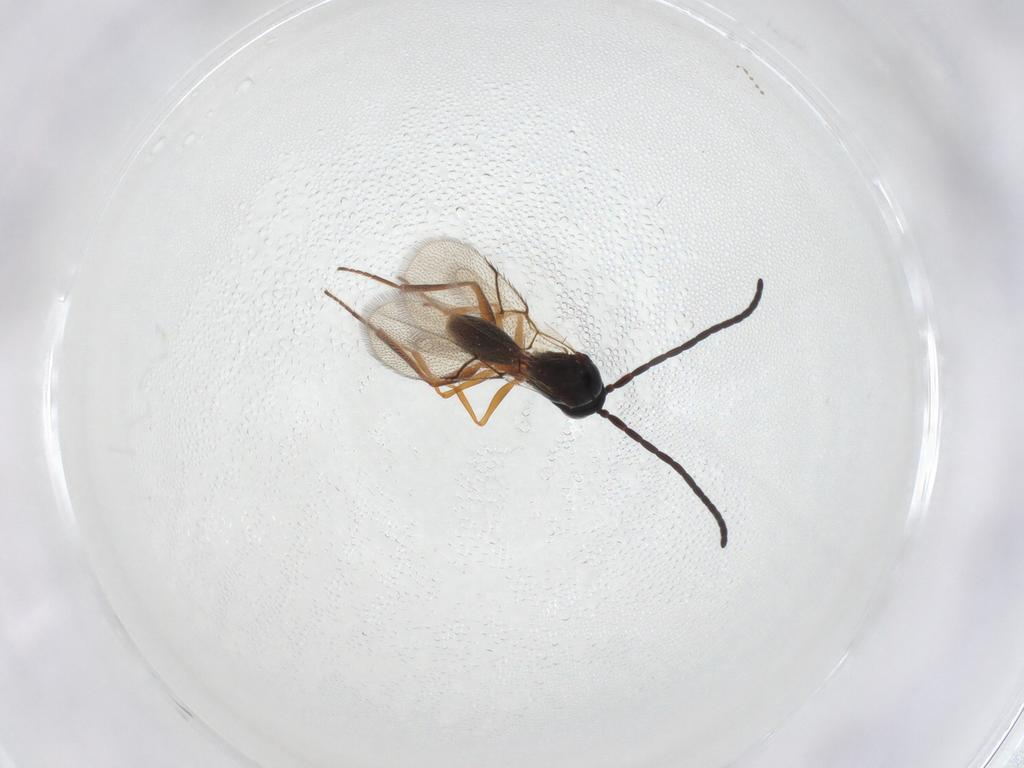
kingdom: Animalia
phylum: Arthropoda
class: Insecta
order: Hymenoptera
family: Figitidae
